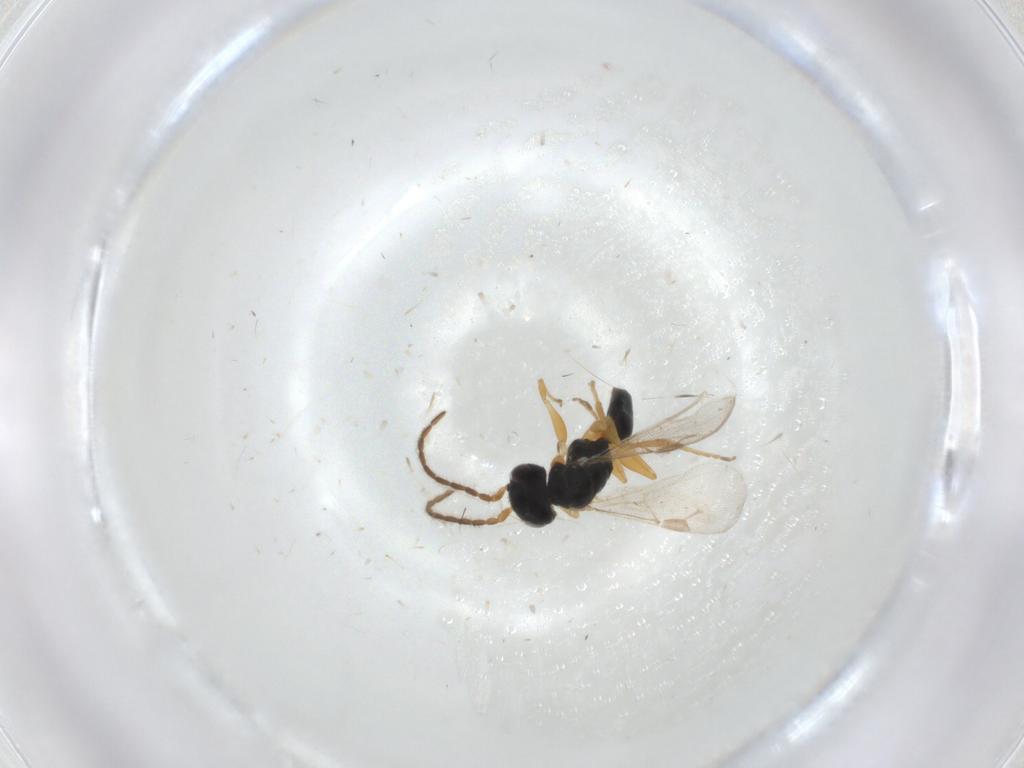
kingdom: Animalia
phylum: Arthropoda
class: Insecta
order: Hymenoptera
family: Dryinidae
